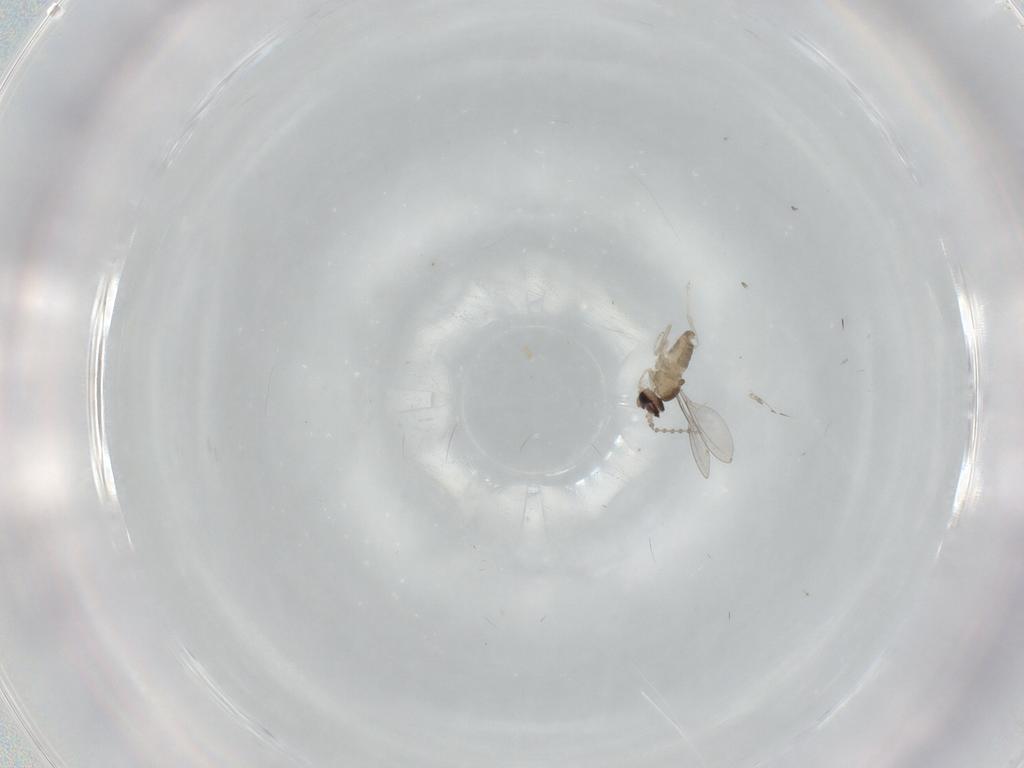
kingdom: Animalia
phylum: Arthropoda
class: Insecta
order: Diptera
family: Cecidomyiidae
